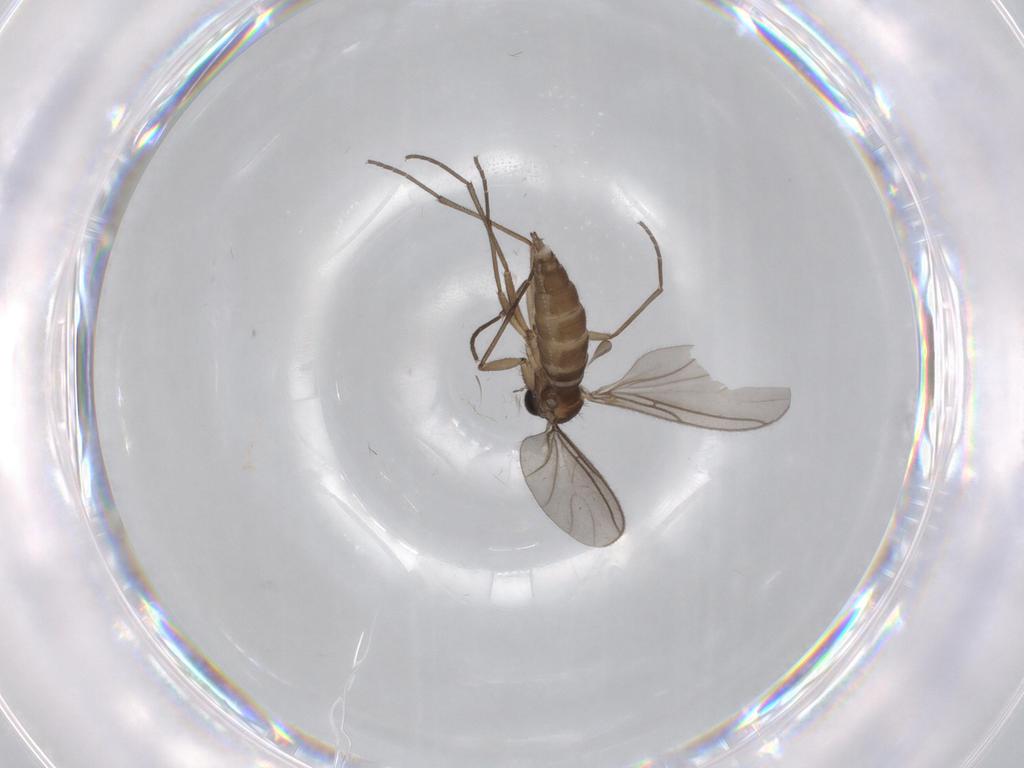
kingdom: Animalia
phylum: Arthropoda
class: Insecta
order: Diptera
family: Sciaridae
